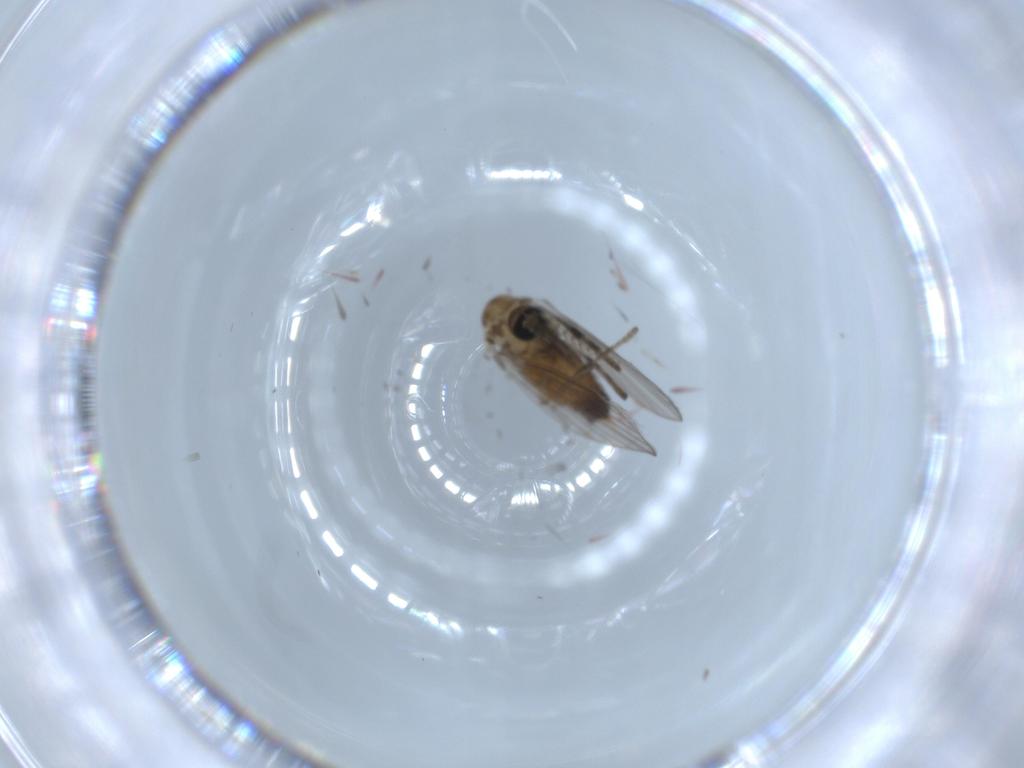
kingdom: Animalia
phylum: Arthropoda
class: Insecta
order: Diptera
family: Psychodidae
